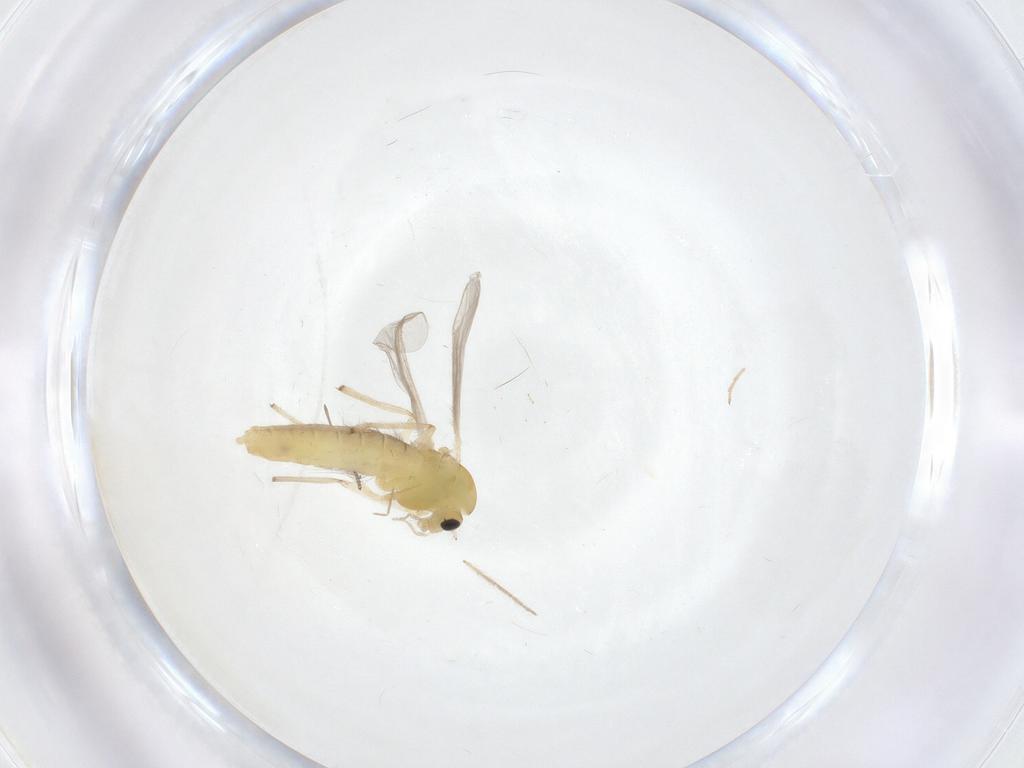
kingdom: Animalia
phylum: Arthropoda
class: Insecta
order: Diptera
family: Chironomidae
